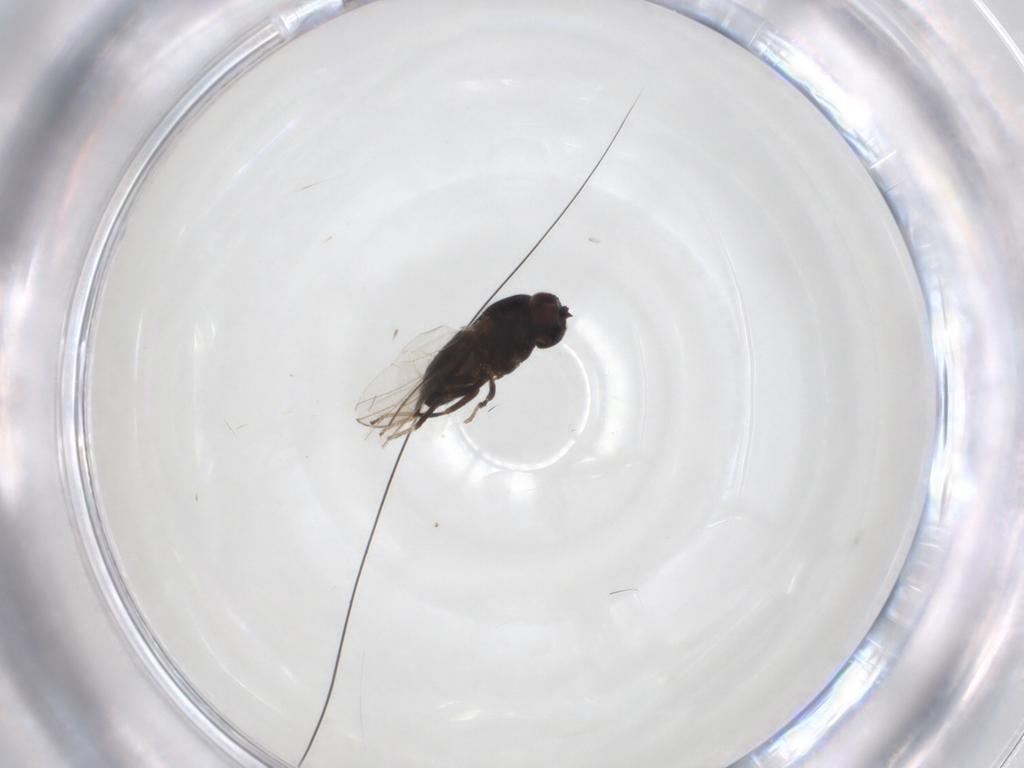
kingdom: Animalia
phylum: Arthropoda
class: Insecta
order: Diptera
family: Ephydridae
